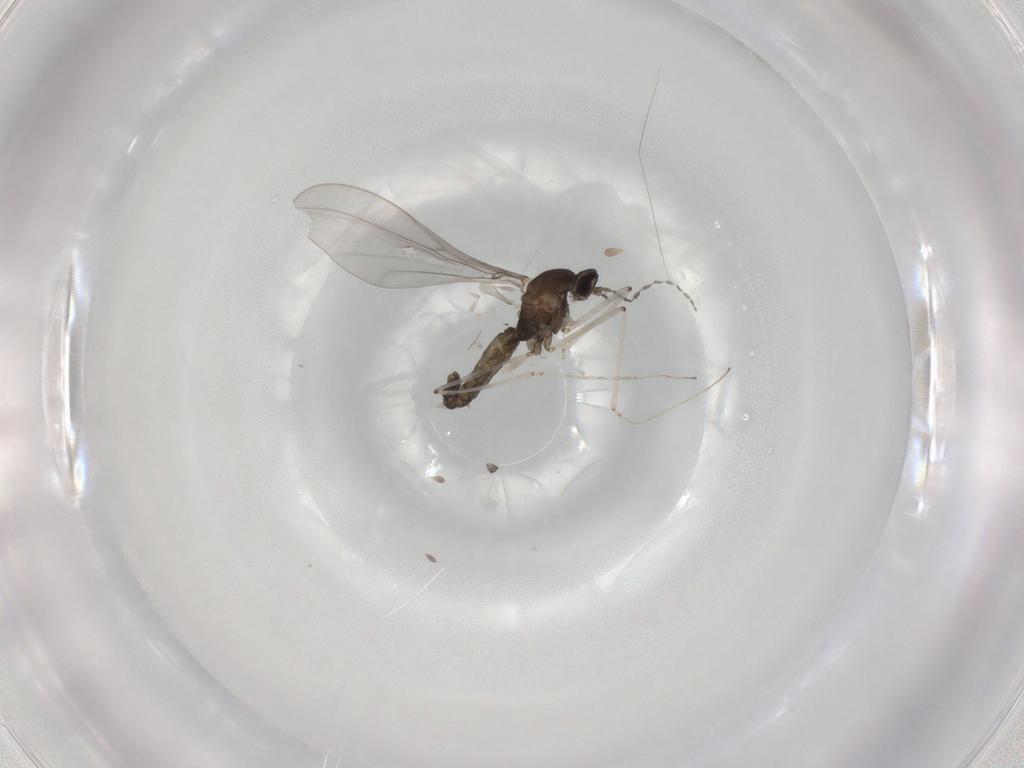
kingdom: Animalia
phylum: Arthropoda
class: Insecta
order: Diptera
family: Cecidomyiidae
